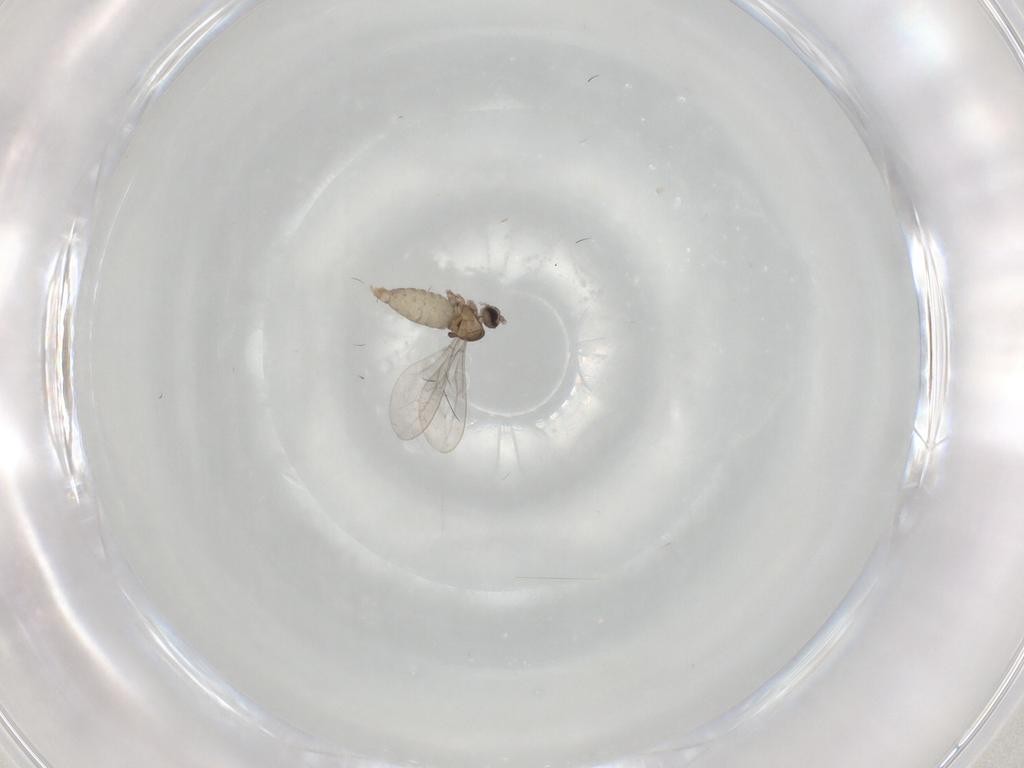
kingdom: Animalia
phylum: Arthropoda
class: Insecta
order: Diptera
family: Cecidomyiidae
